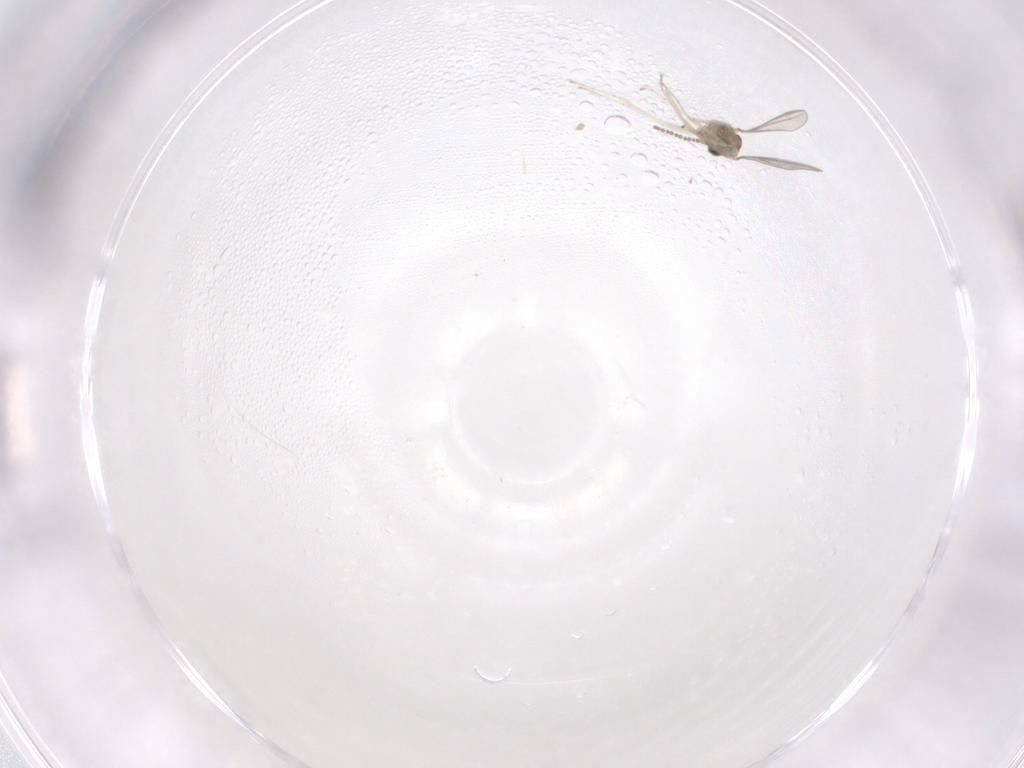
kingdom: Animalia
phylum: Arthropoda
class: Insecta
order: Diptera
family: Cecidomyiidae
